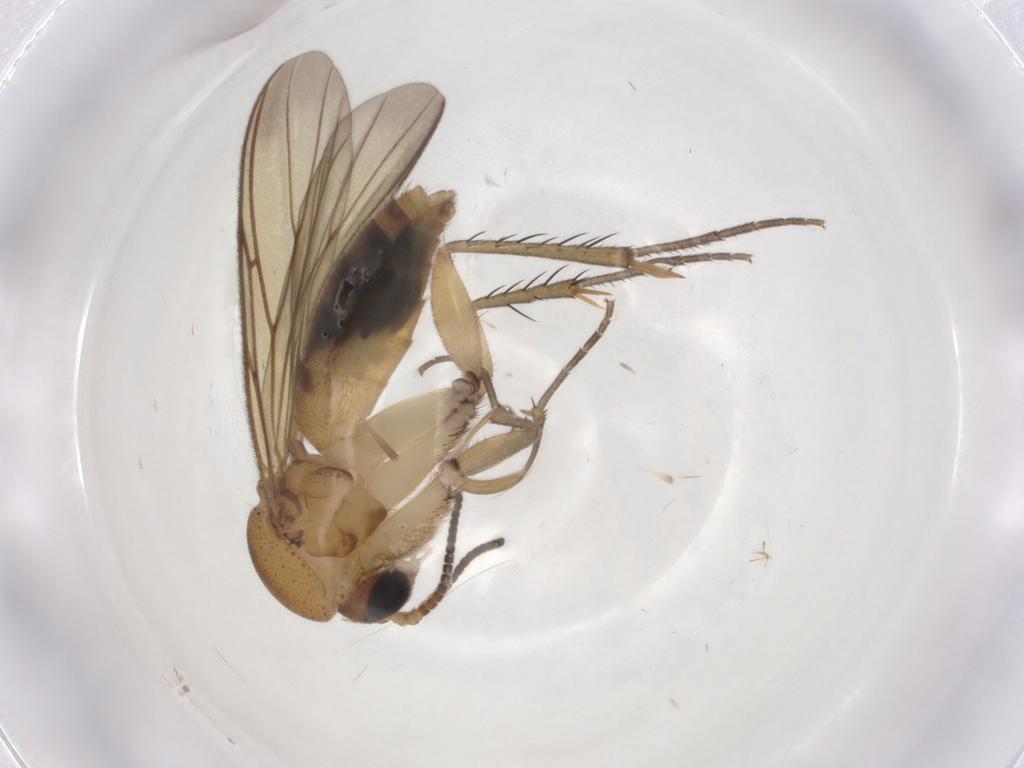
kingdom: Animalia
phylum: Arthropoda
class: Insecta
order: Diptera
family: Mycetophilidae
